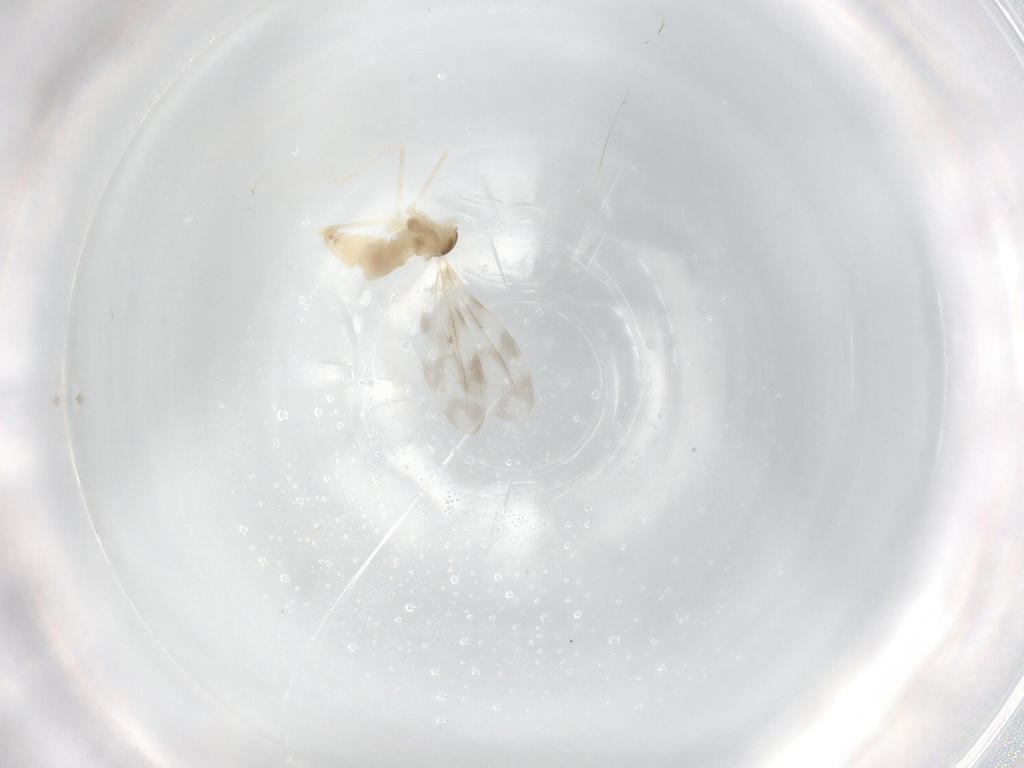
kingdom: Animalia
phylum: Arthropoda
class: Insecta
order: Diptera
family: Cecidomyiidae
